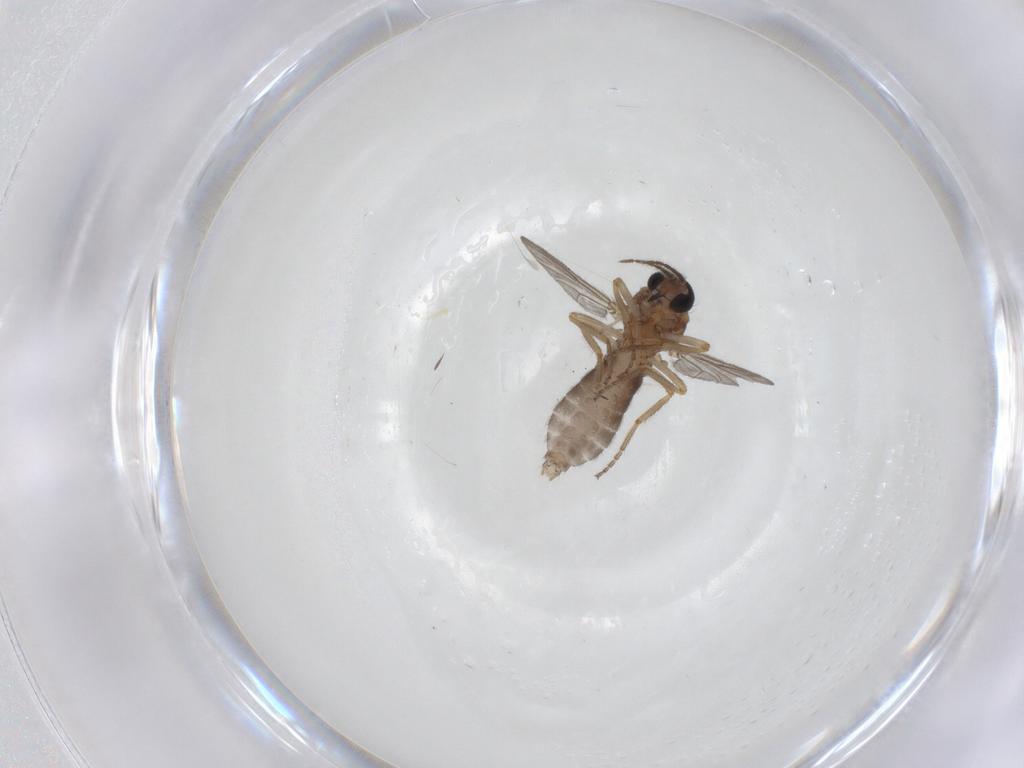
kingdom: Animalia
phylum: Arthropoda
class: Insecta
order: Diptera
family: Ceratopogonidae
